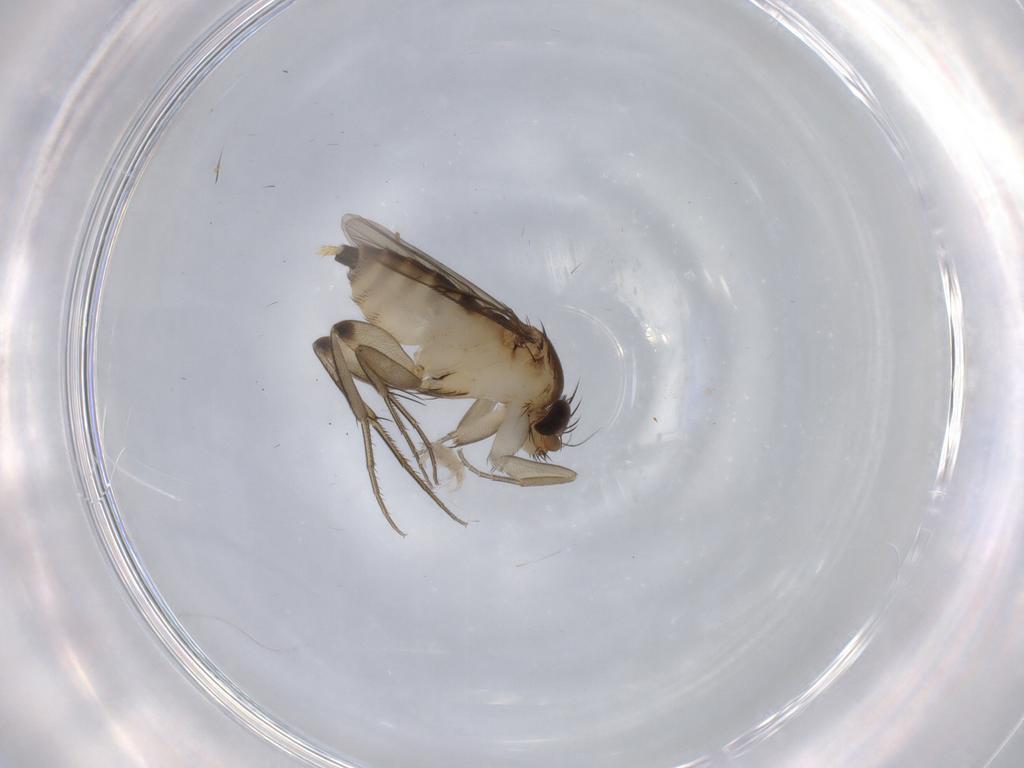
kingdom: Animalia
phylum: Arthropoda
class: Insecta
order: Diptera
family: Phoridae
